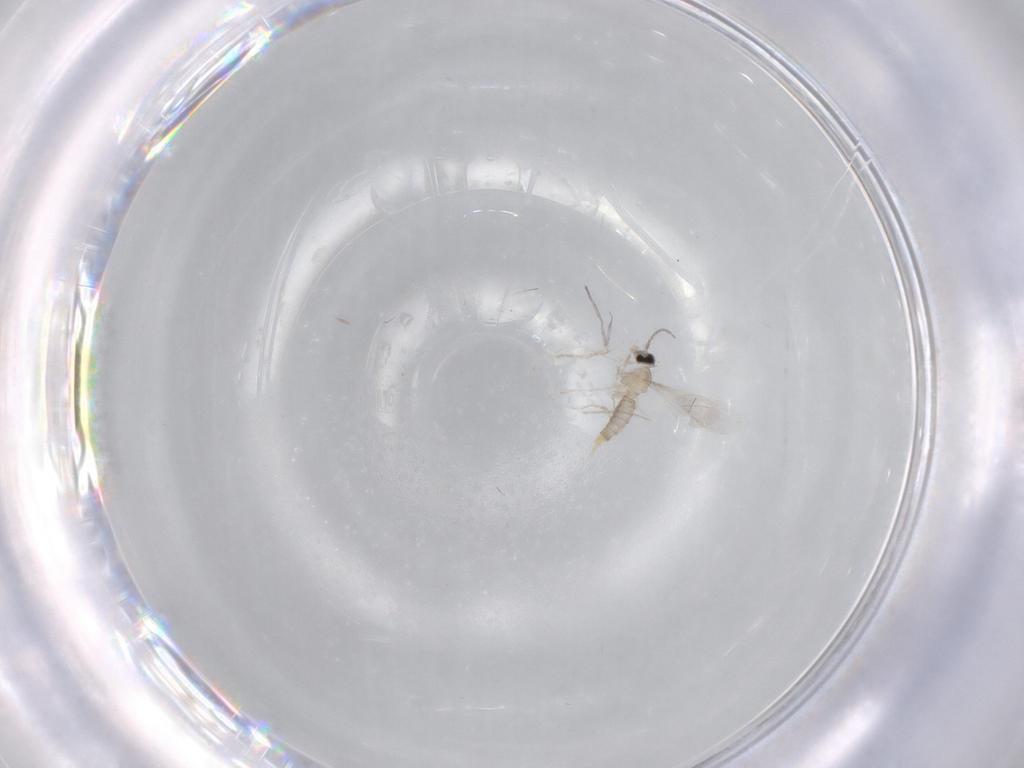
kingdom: Animalia
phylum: Arthropoda
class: Insecta
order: Diptera
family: Cecidomyiidae
